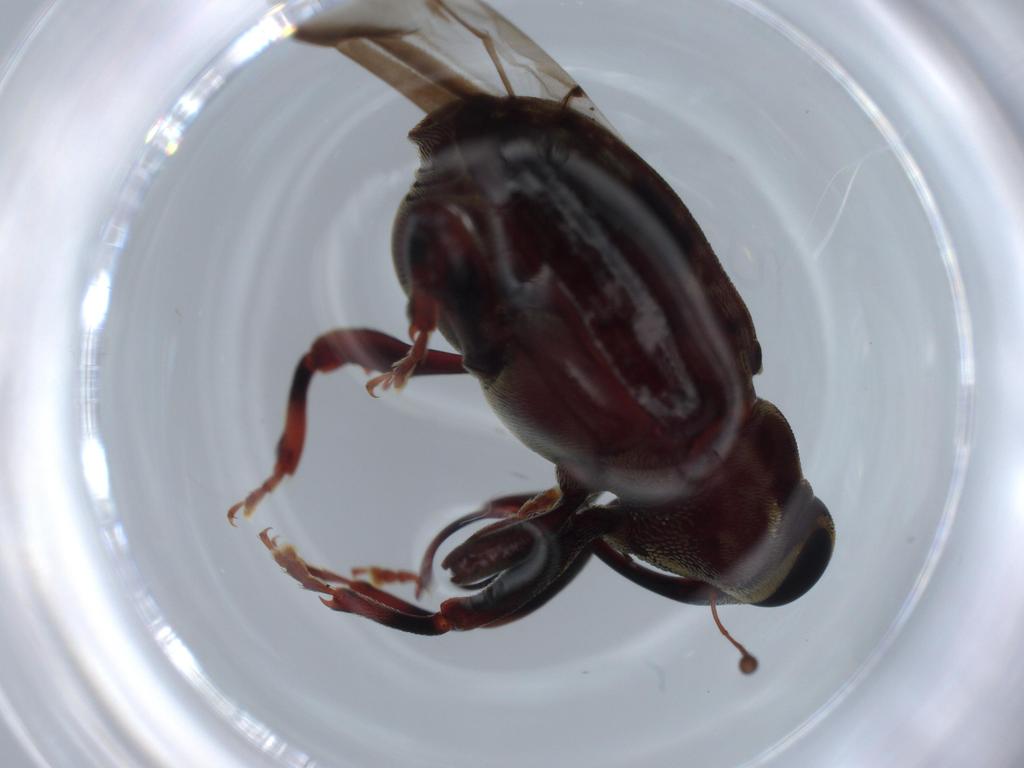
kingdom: Animalia
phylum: Arthropoda
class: Insecta
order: Coleoptera
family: Curculionidae
